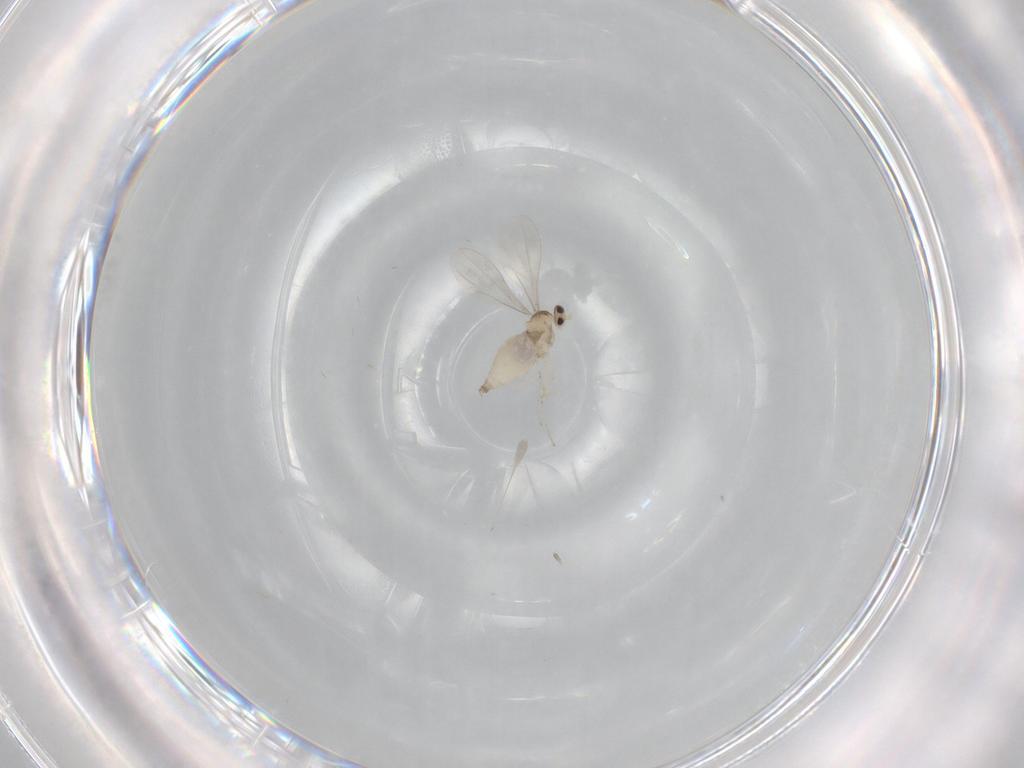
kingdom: Animalia
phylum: Arthropoda
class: Insecta
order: Diptera
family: Cecidomyiidae
